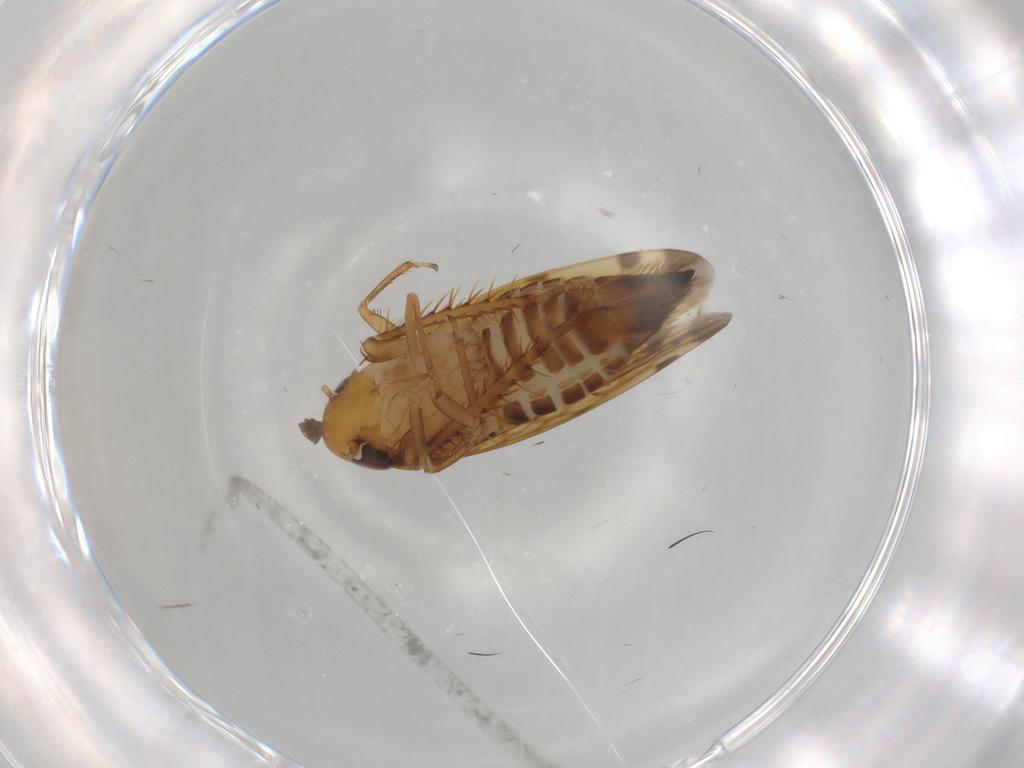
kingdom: Animalia
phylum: Arthropoda
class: Insecta
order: Hemiptera
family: Cicadellidae
